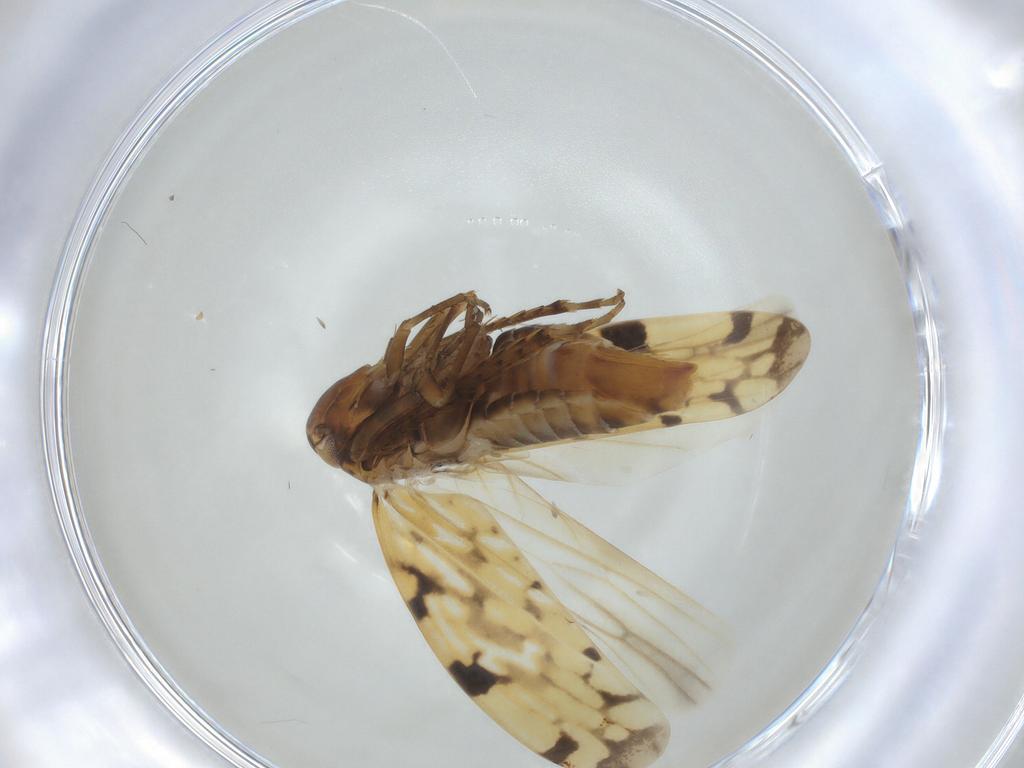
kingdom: Animalia
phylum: Arthropoda
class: Insecta
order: Hemiptera
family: Cicadellidae
